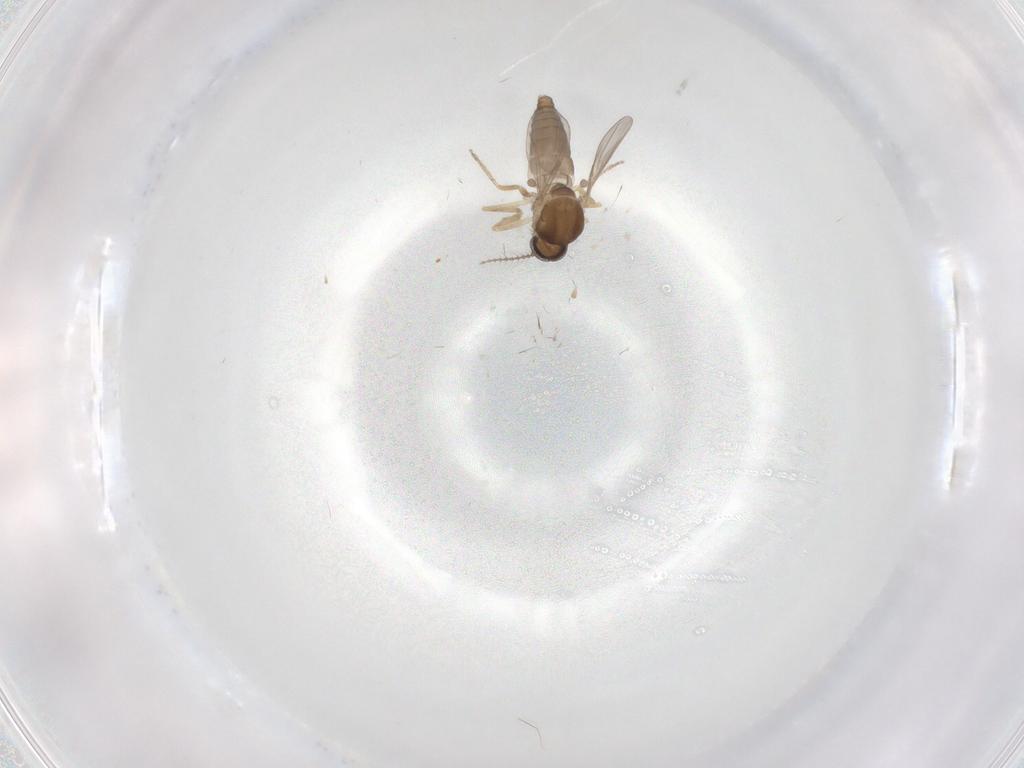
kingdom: Animalia
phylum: Arthropoda
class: Insecta
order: Diptera
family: Ceratopogonidae
